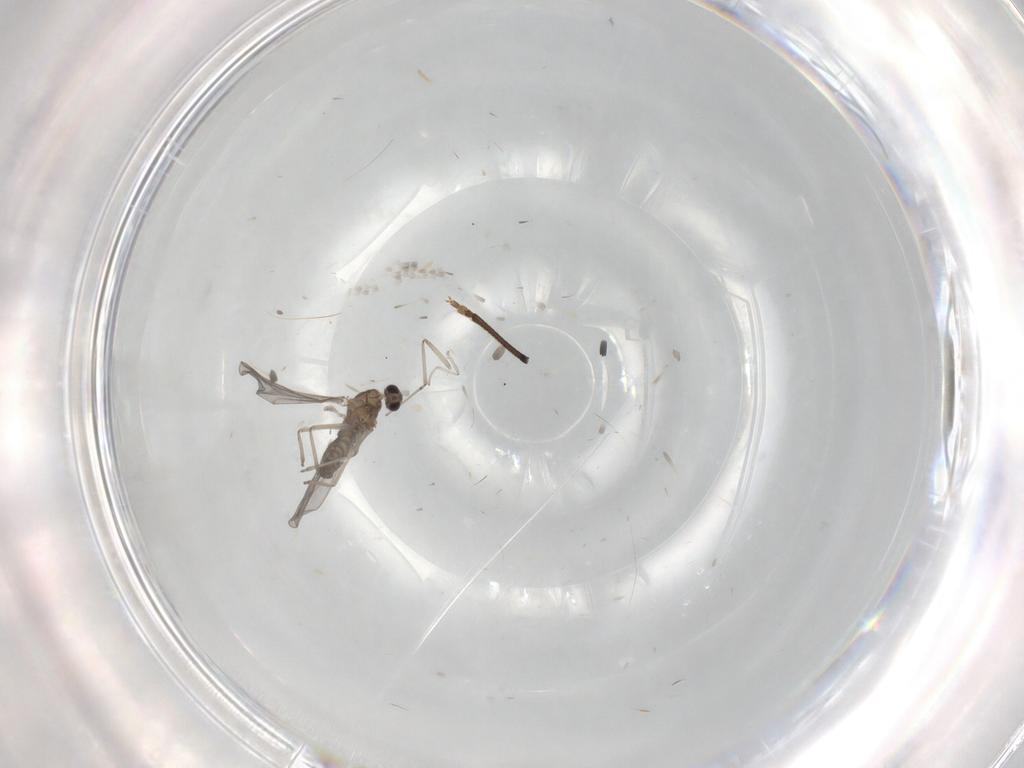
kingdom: Animalia
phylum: Arthropoda
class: Insecta
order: Diptera
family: Cecidomyiidae
